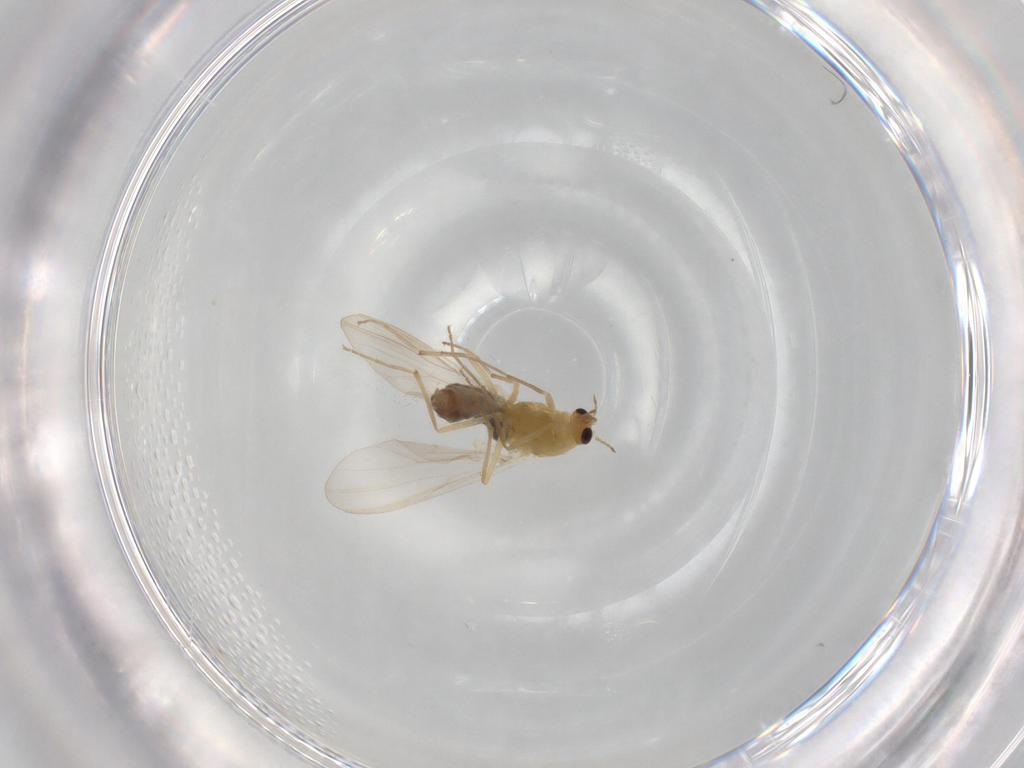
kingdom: Animalia
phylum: Arthropoda
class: Insecta
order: Diptera
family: Chironomidae
